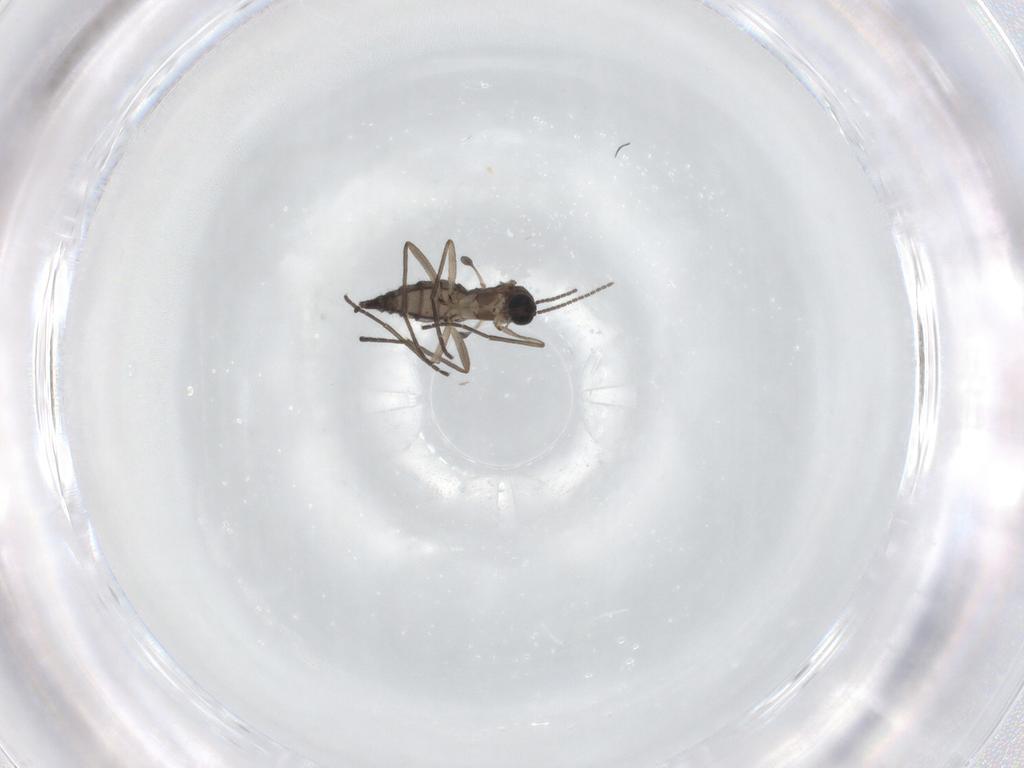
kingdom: Animalia
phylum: Arthropoda
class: Insecta
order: Diptera
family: Sciaridae
